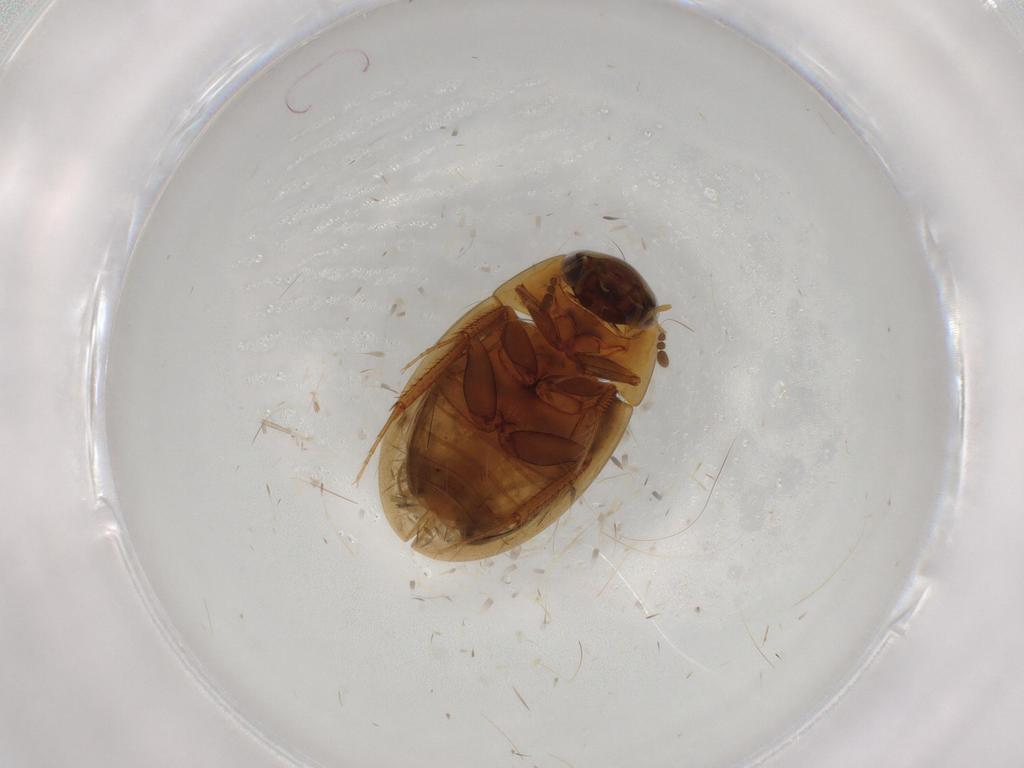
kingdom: Animalia
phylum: Arthropoda
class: Insecta
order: Coleoptera
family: Hydrophilidae
